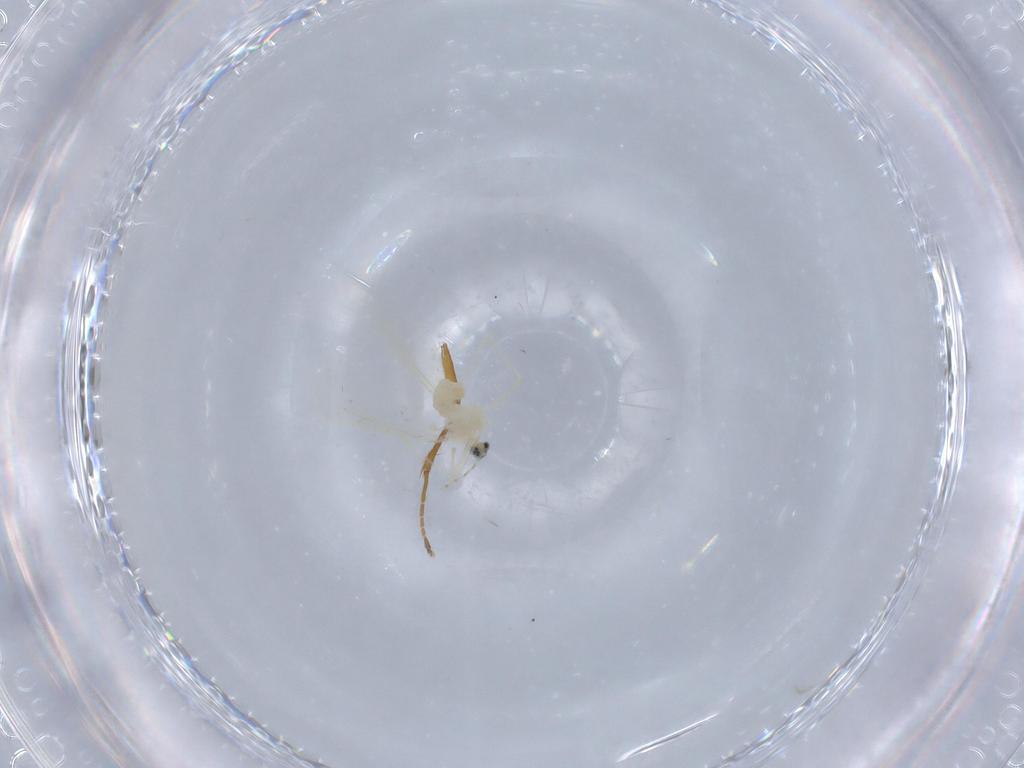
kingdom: Animalia
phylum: Arthropoda
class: Insecta
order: Diptera
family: Cecidomyiidae
